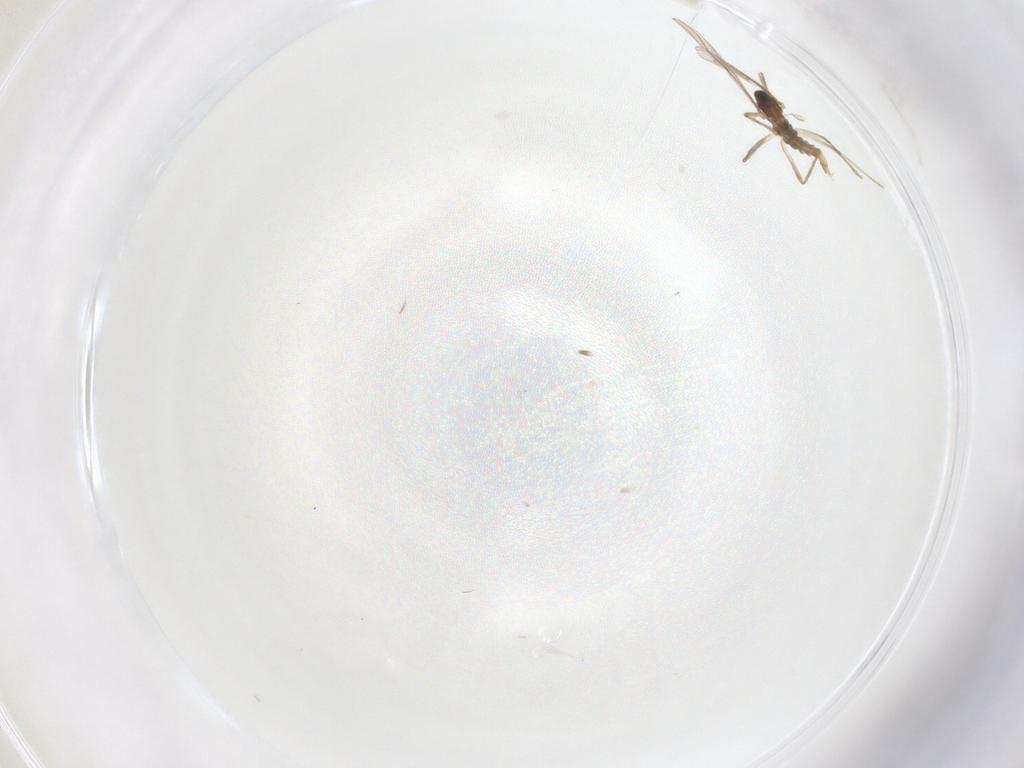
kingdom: Animalia
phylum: Arthropoda
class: Insecta
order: Diptera
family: Cecidomyiidae
